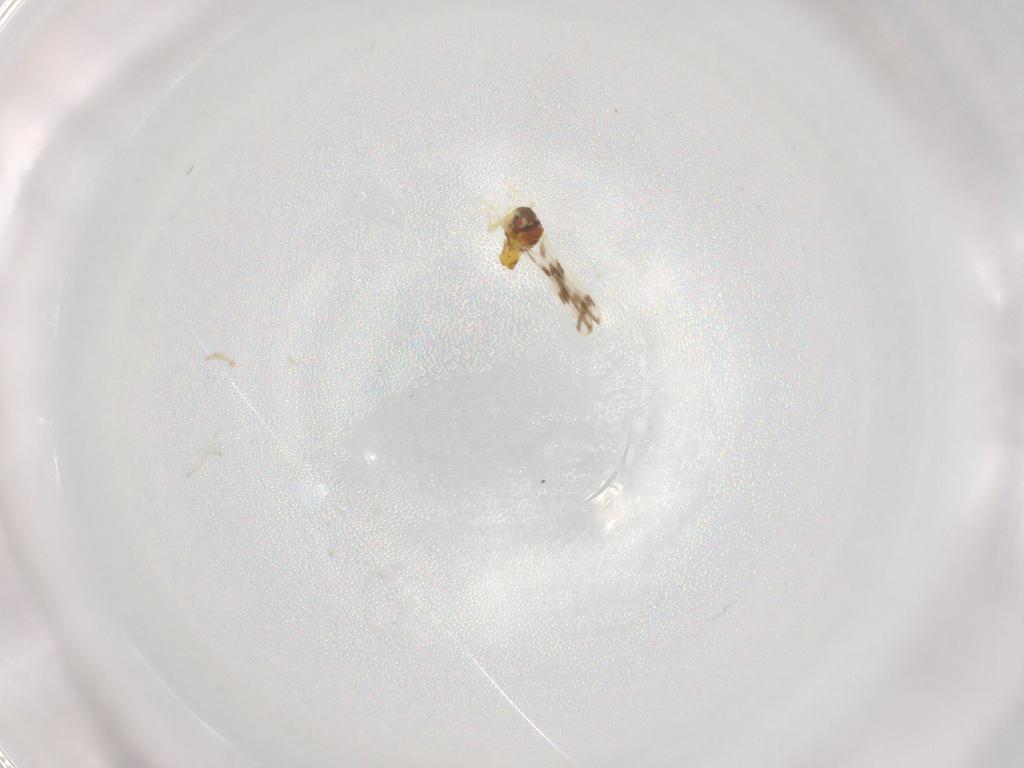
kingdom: Animalia
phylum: Arthropoda
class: Insecta
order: Hemiptera
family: Aleyrodidae
